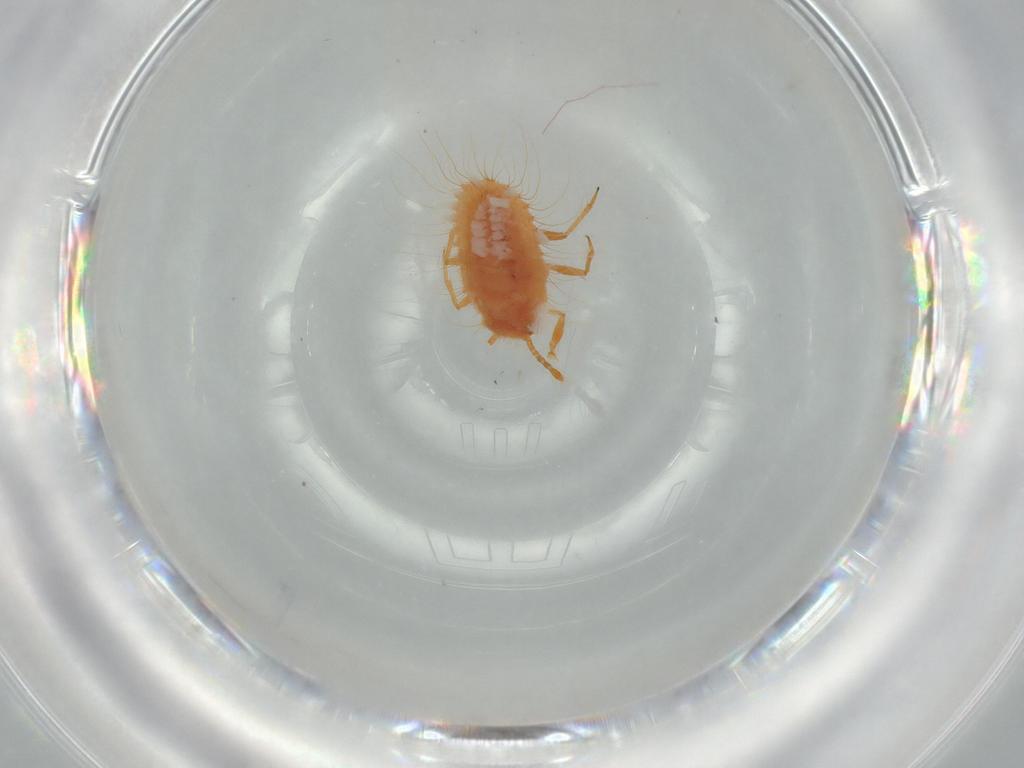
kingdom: Animalia
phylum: Arthropoda
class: Insecta
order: Hemiptera
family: Coccoidea_incertae_sedis
